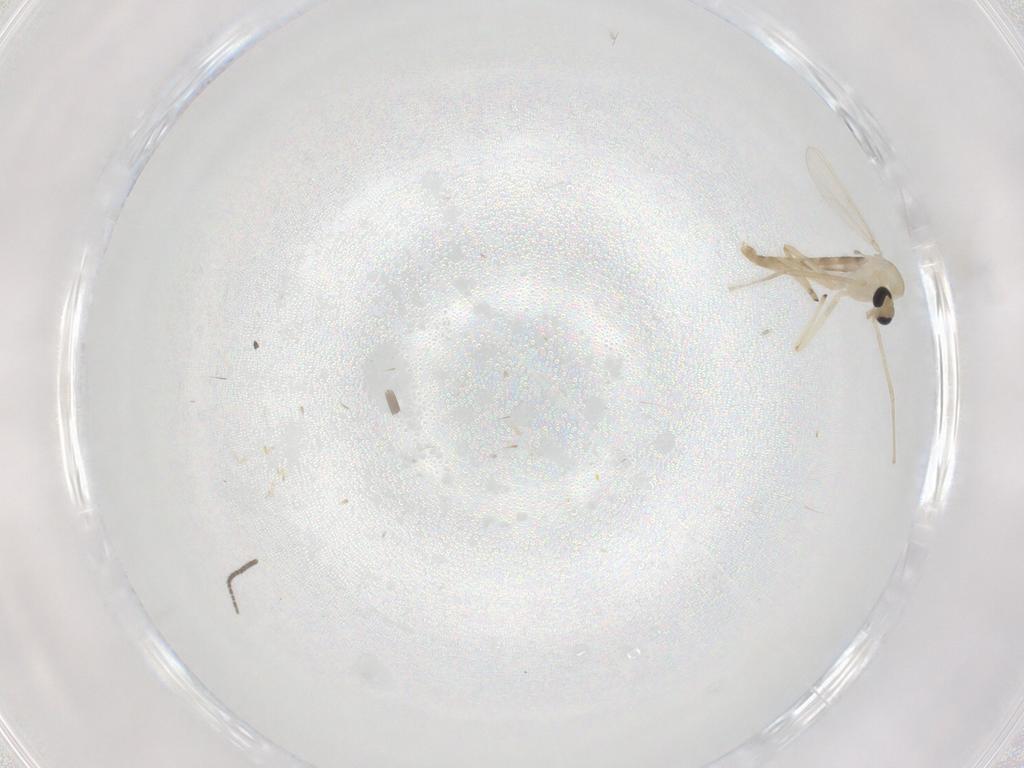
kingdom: Animalia
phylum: Arthropoda
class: Insecta
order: Diptera
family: Chironomidae
